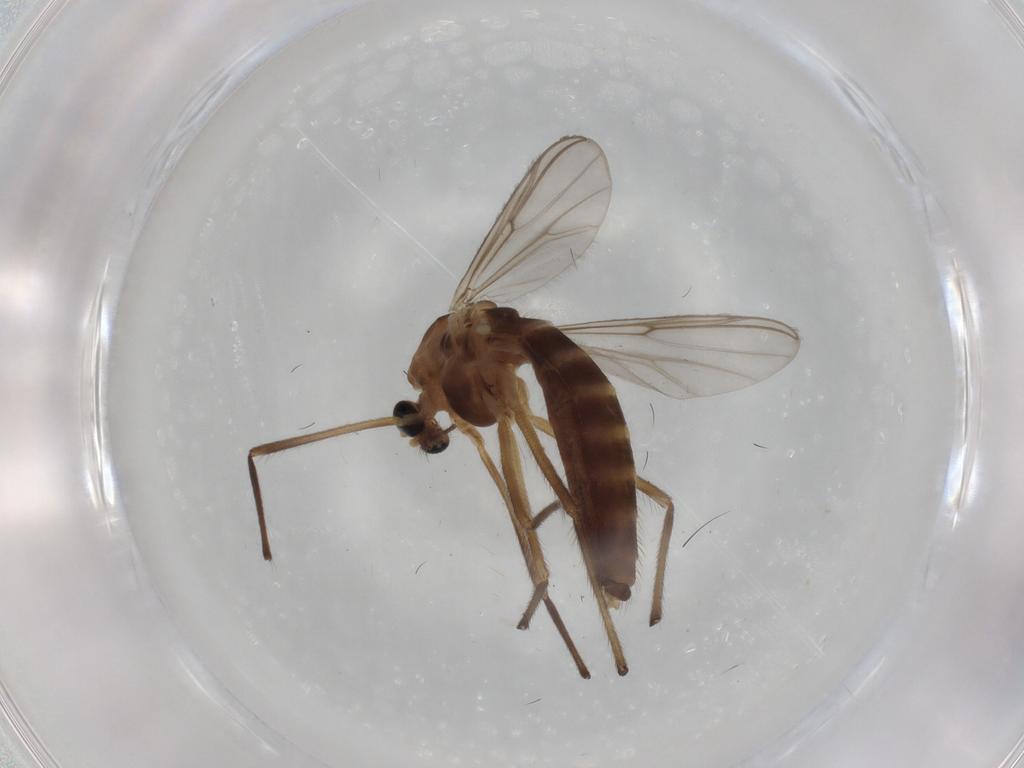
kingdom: Animalia
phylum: Arthropoda
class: Insecta
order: Diptera
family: Chironomidae
